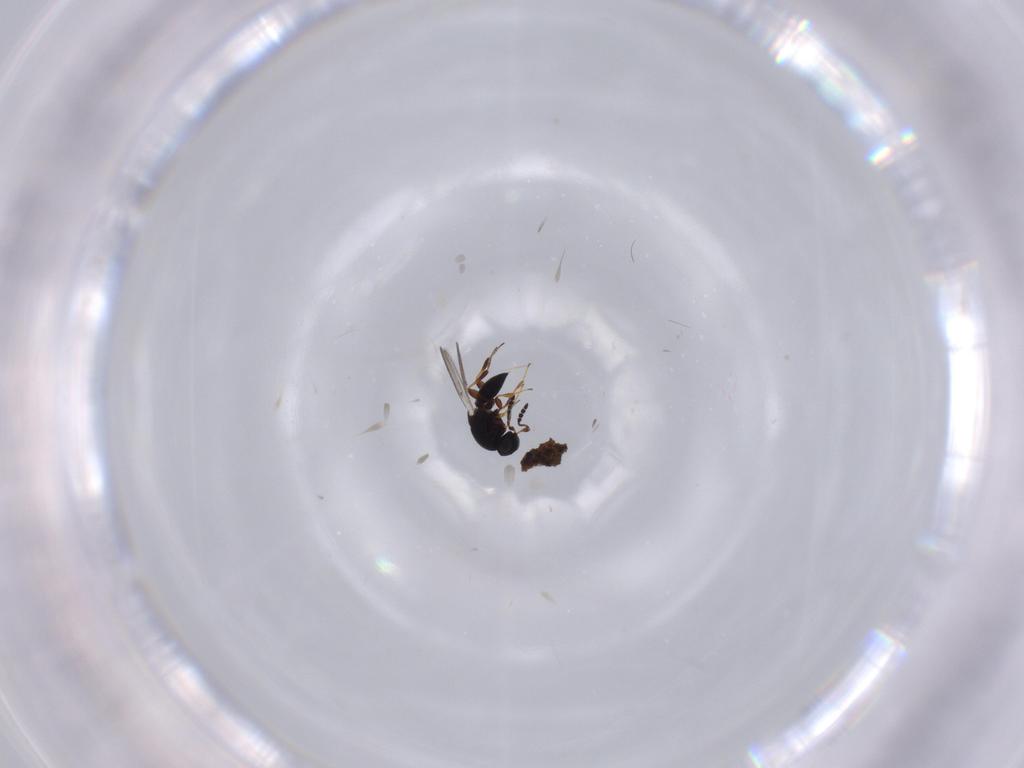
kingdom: Animalia
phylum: Arthropoda
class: Insecta
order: Hymenoptera
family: Platygastridae
